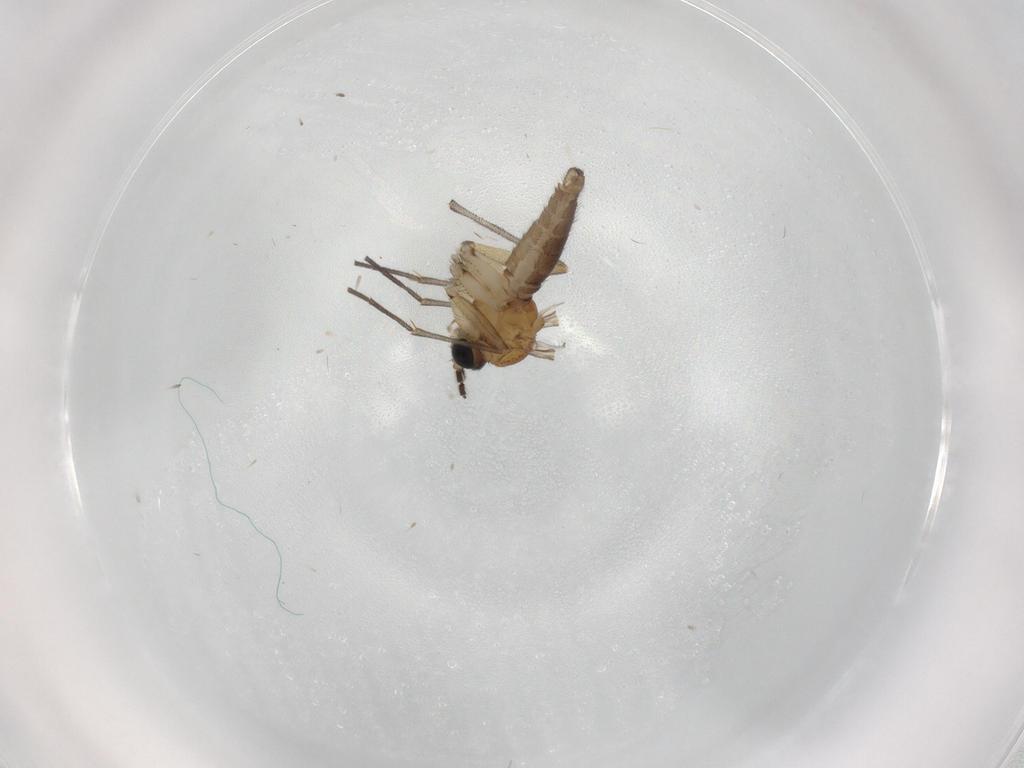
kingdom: Animalia
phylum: Arthropoda
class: Insecta
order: Diptera
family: Sciaridae
